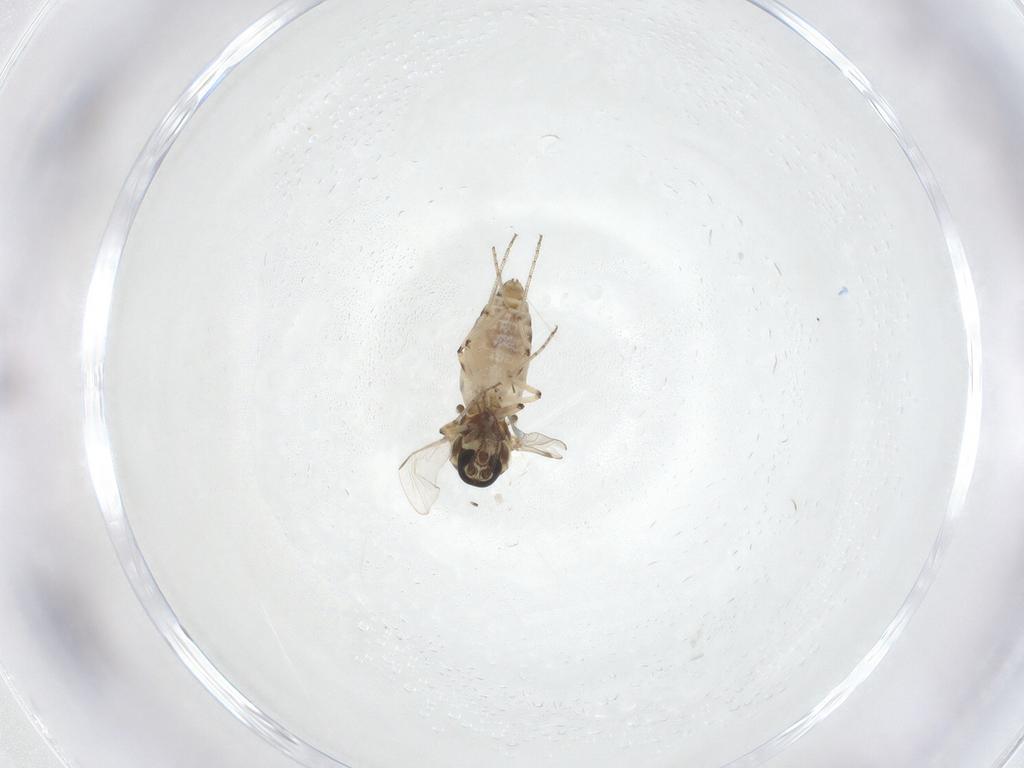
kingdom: Animalia
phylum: Arthropoda
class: Insecta
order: Diptera
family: Ceratopogonidae
